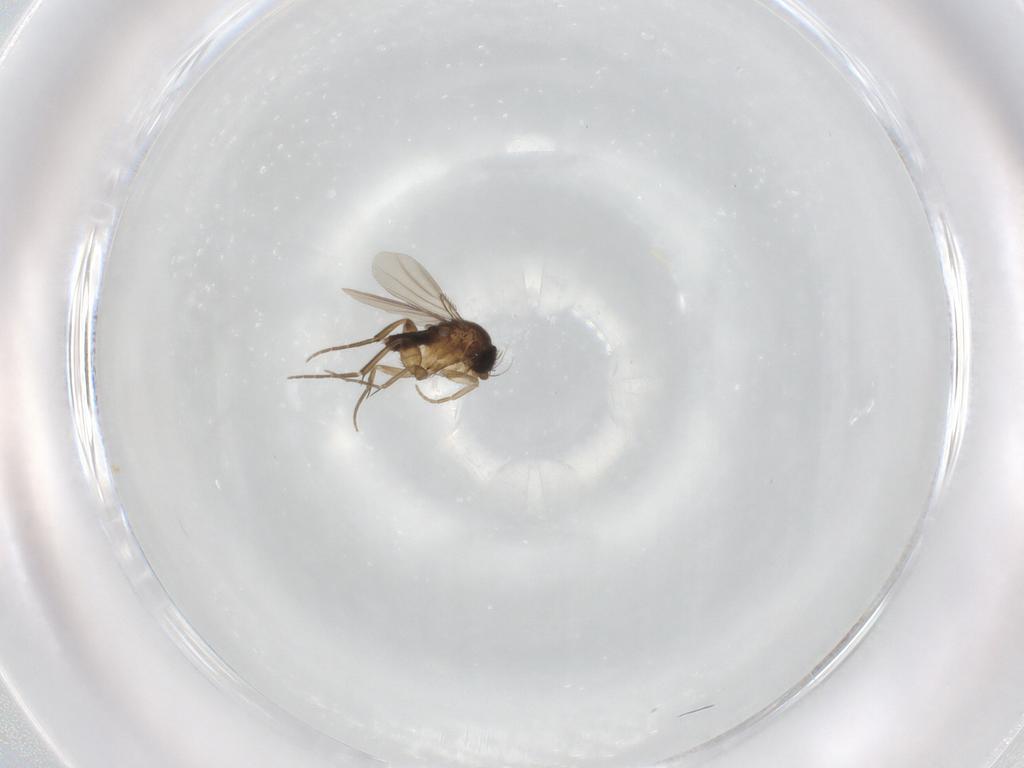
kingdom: Animalia
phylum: Arthropoda
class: Insecta
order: Diptera
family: Phoridae
